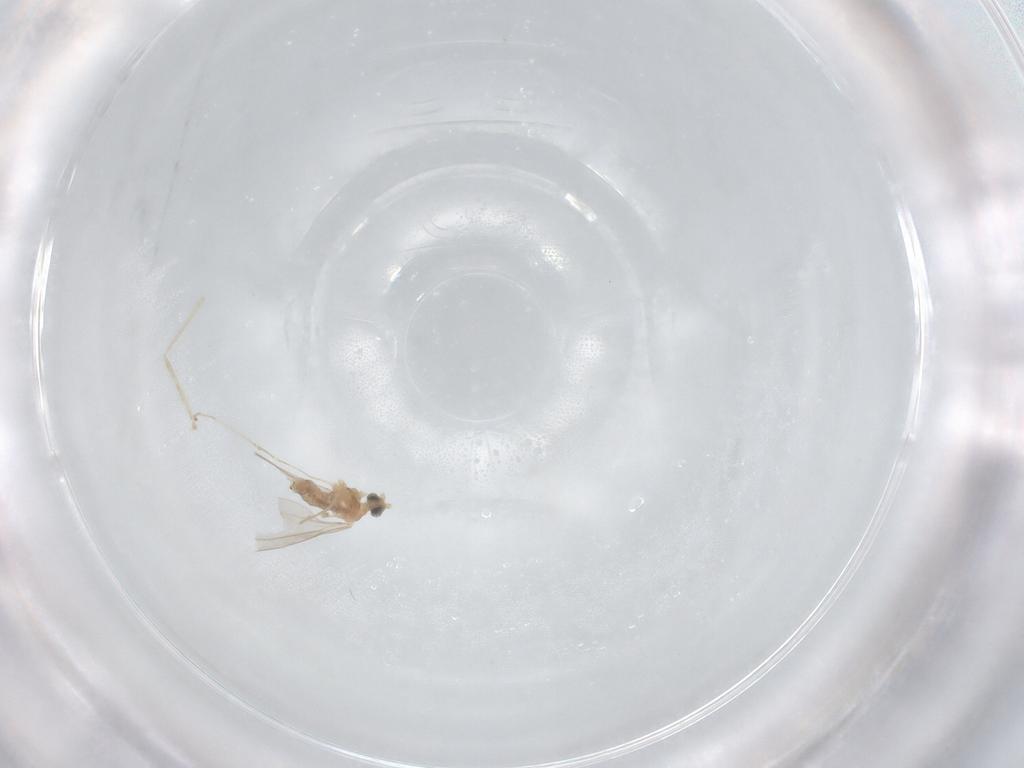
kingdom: Animalia
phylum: Arthropoda
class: Insecta
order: Diptera
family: Cecidomyiidae
